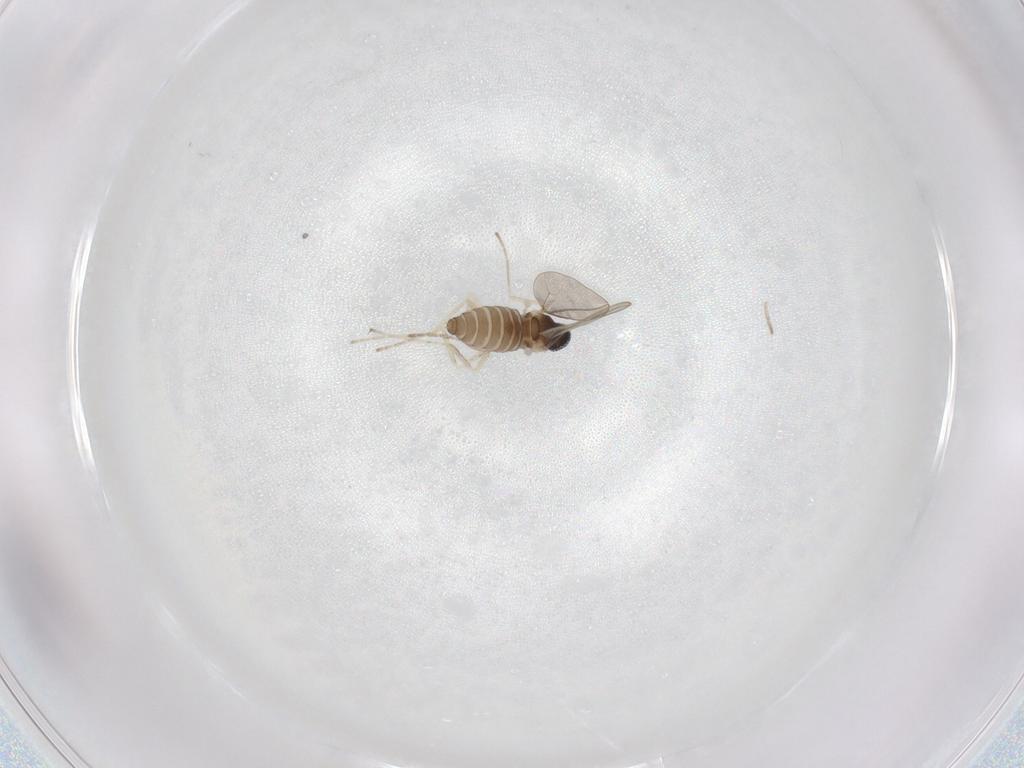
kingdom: Animalia
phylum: Arthropoda
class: Insecta
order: Diptera
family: Cecidomyiidae
